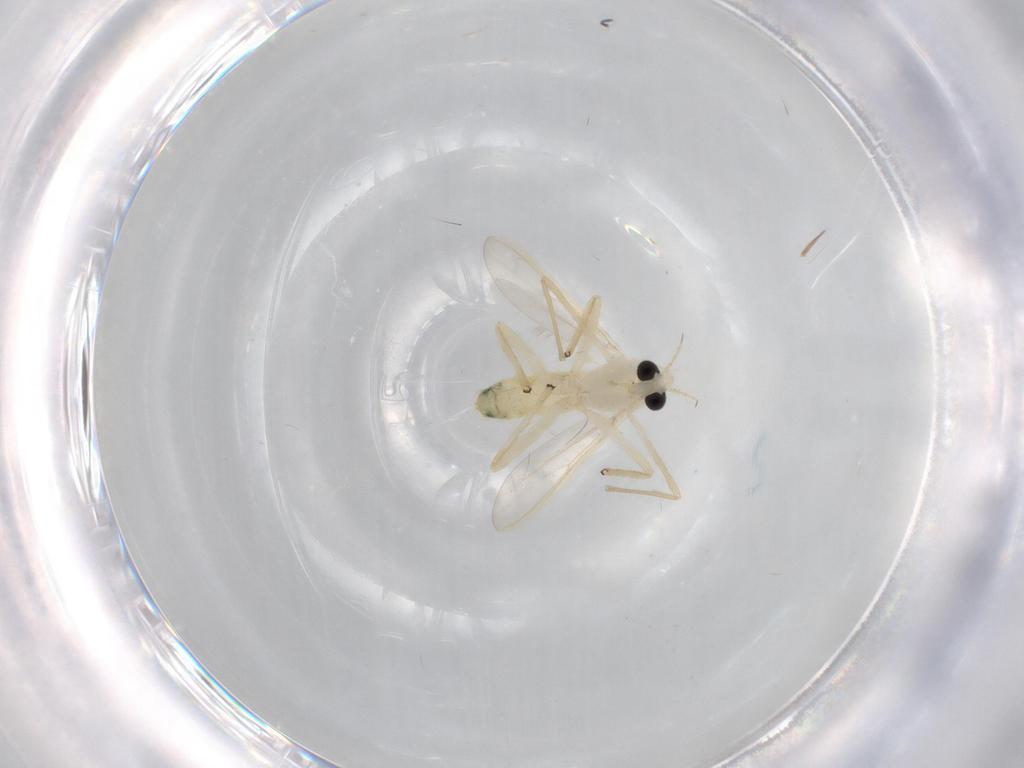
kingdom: Animalia
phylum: Arthropoda
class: Insecta
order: Diptera
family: Chironomidae
